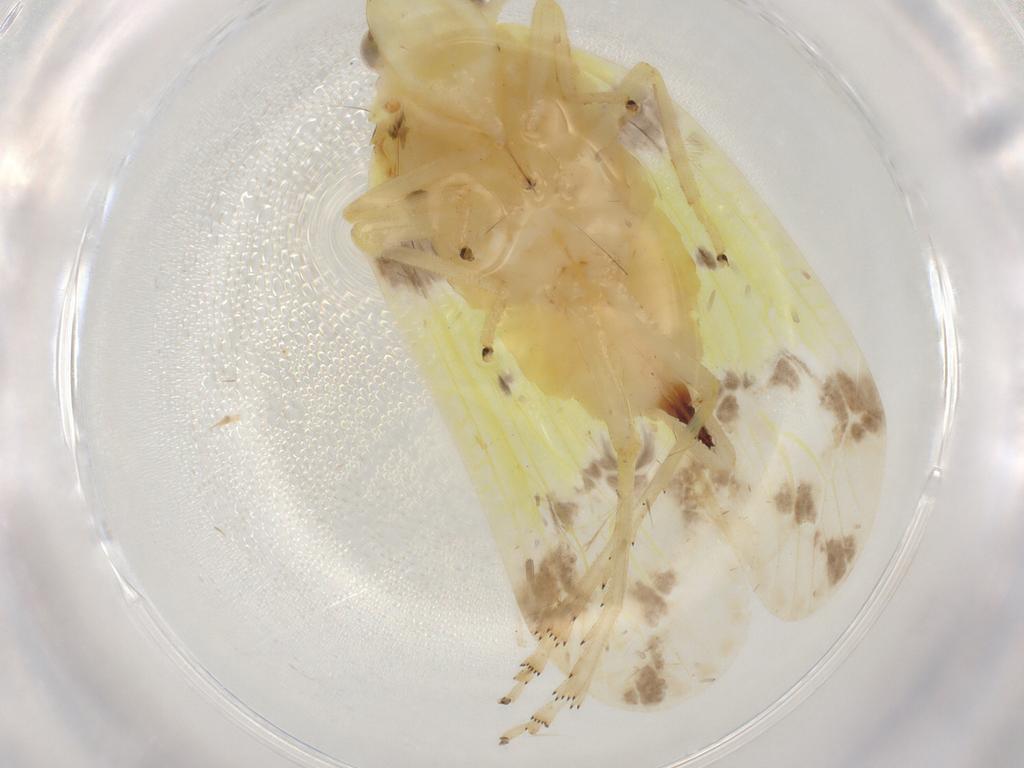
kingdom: Animalia
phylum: Arthropoda
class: Insecta
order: Hemiptera
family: Tropiduchidae
